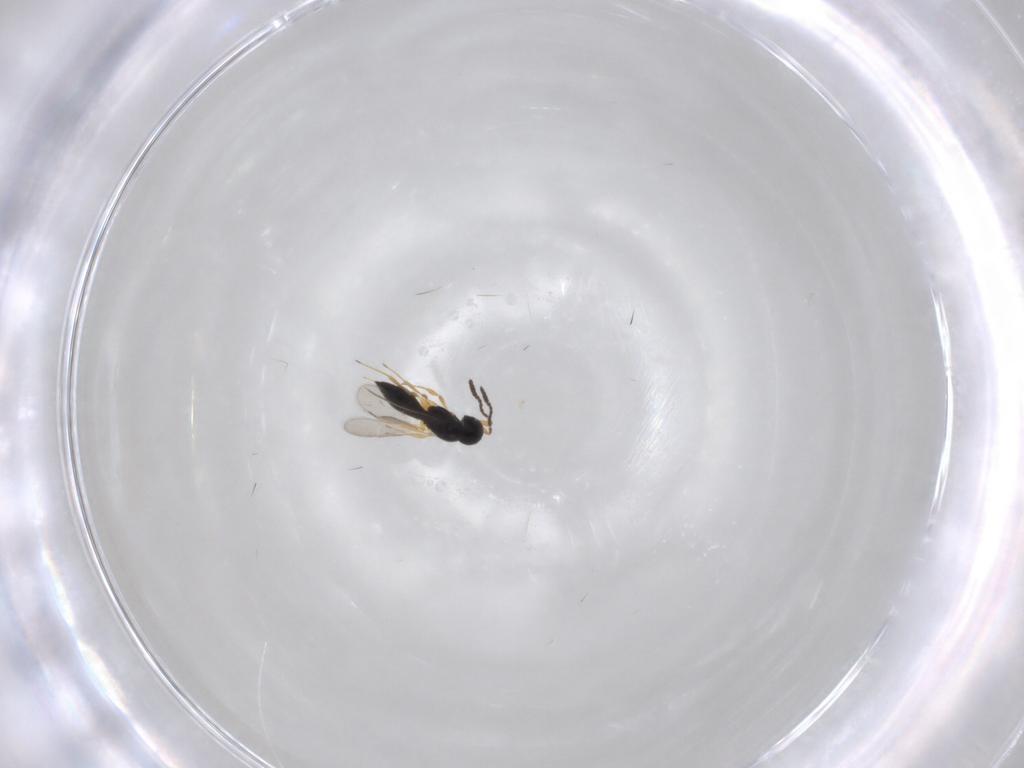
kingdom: Animalia
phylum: Arthropoda
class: Insecta
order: Hymenoptera
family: Scelionidae
